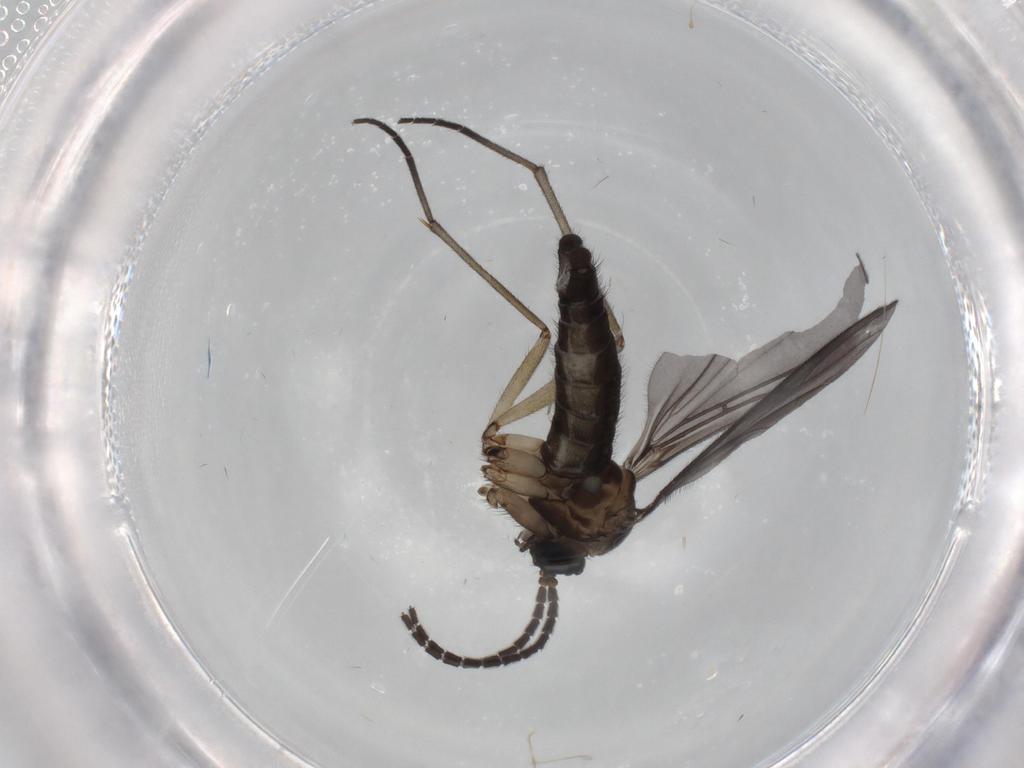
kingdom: Animalia
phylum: Arthropoda
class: Insecta
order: Diptera
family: Sciaridae
